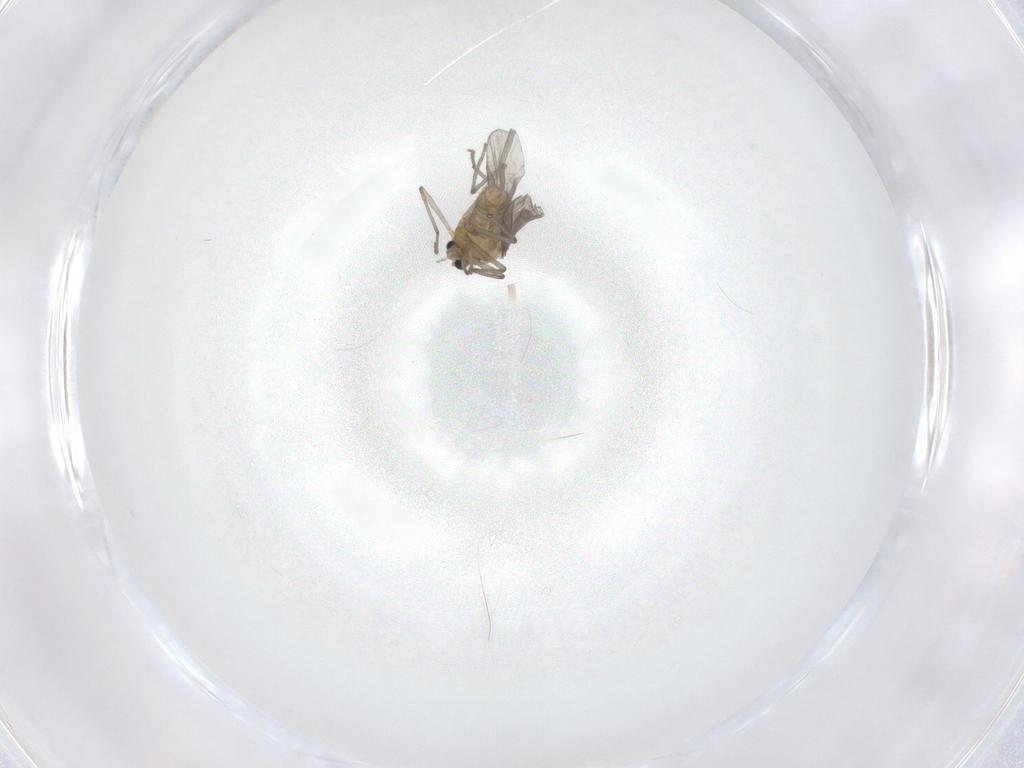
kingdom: Animalia
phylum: Arthropoda
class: Insecta
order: Diptera
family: Chironomidae
